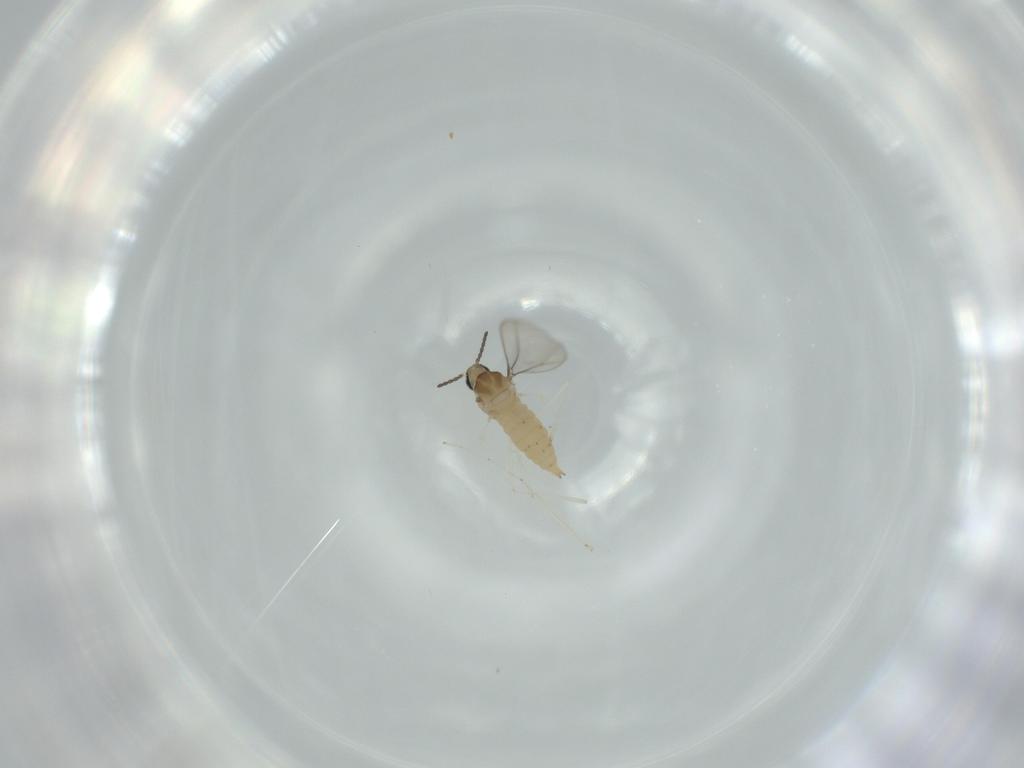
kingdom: Animalia
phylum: Arthropoda
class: Insecta
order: Diptera
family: Cecidomyiidae
